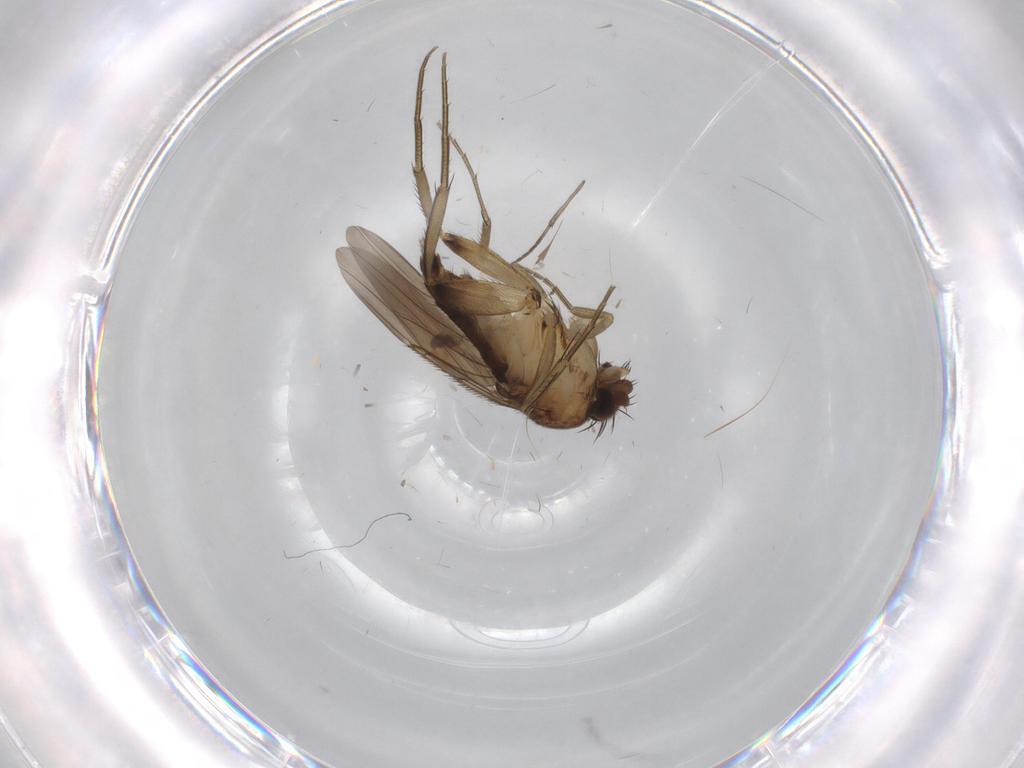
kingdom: Animalia
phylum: Arthropoda
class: Insecta
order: Diptera
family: Phoridae
